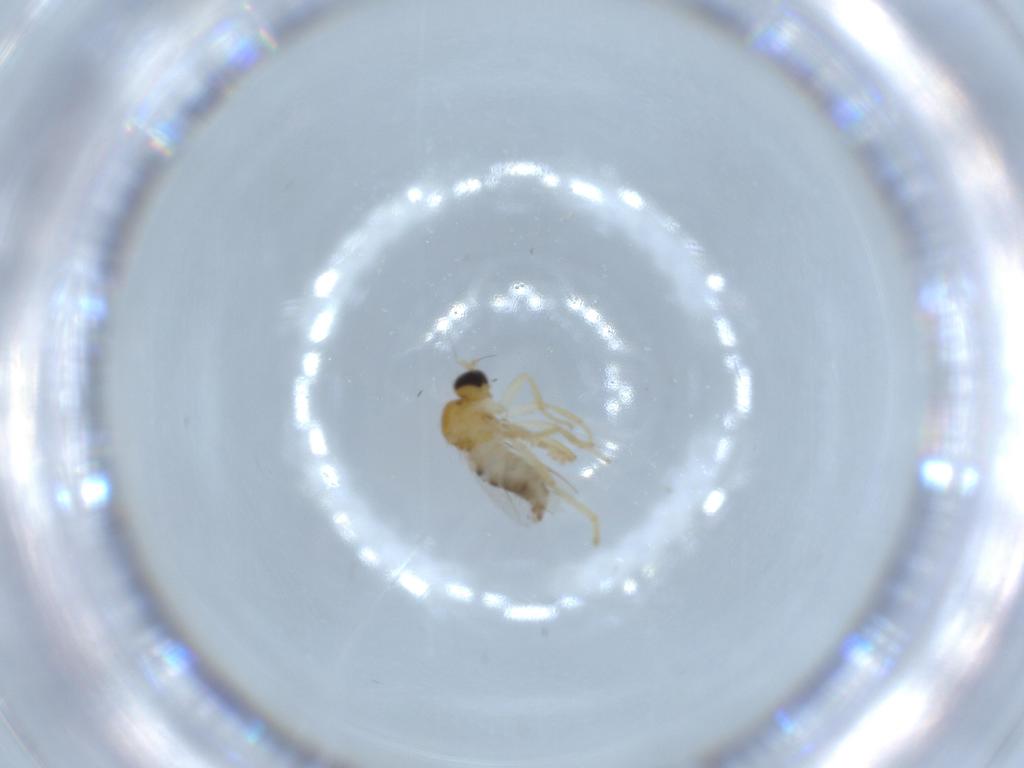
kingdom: Animalia
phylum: Arthropoda
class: Insecta
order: Diptera
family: Hybotidae
